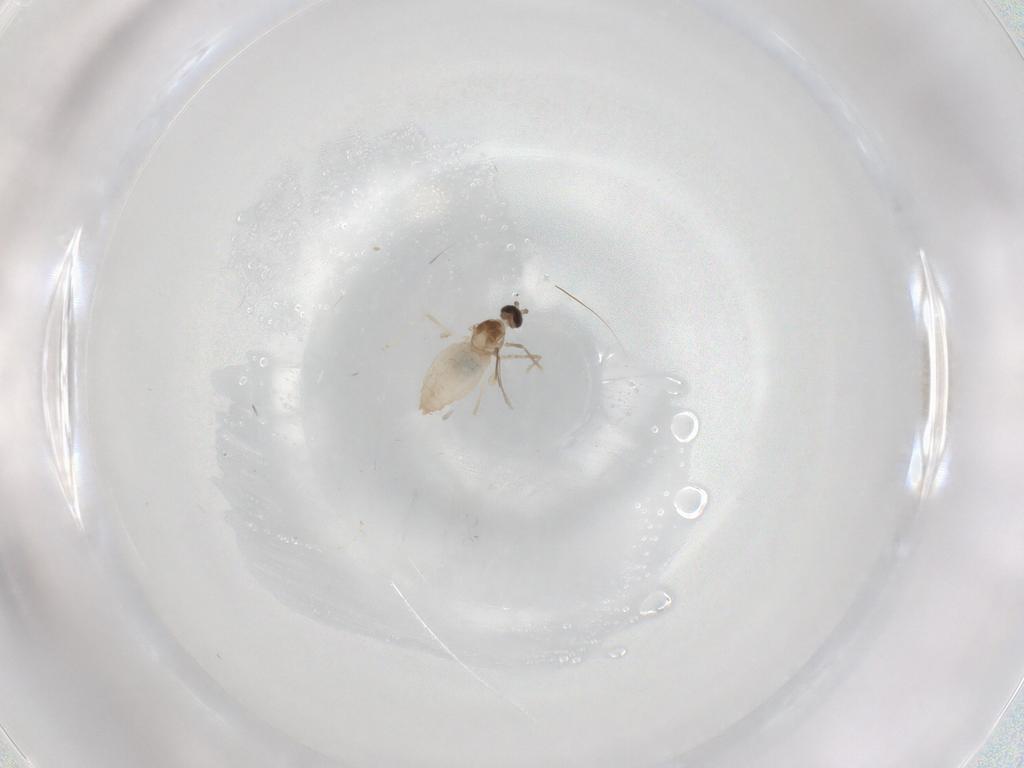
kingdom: Animalia
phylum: Arthropoda
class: Insecta
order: Diptera
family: Cecidomyiidae
